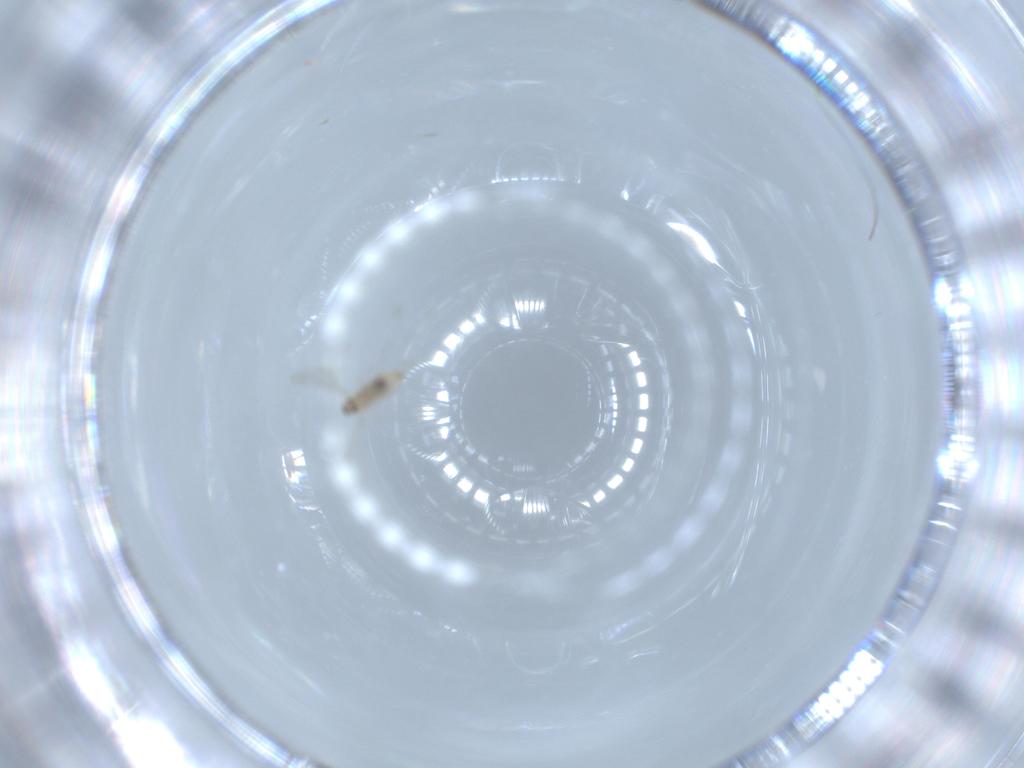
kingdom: Animalia
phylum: Arthropoda
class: Insecta
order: Diptera
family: Cecidomyiidae
